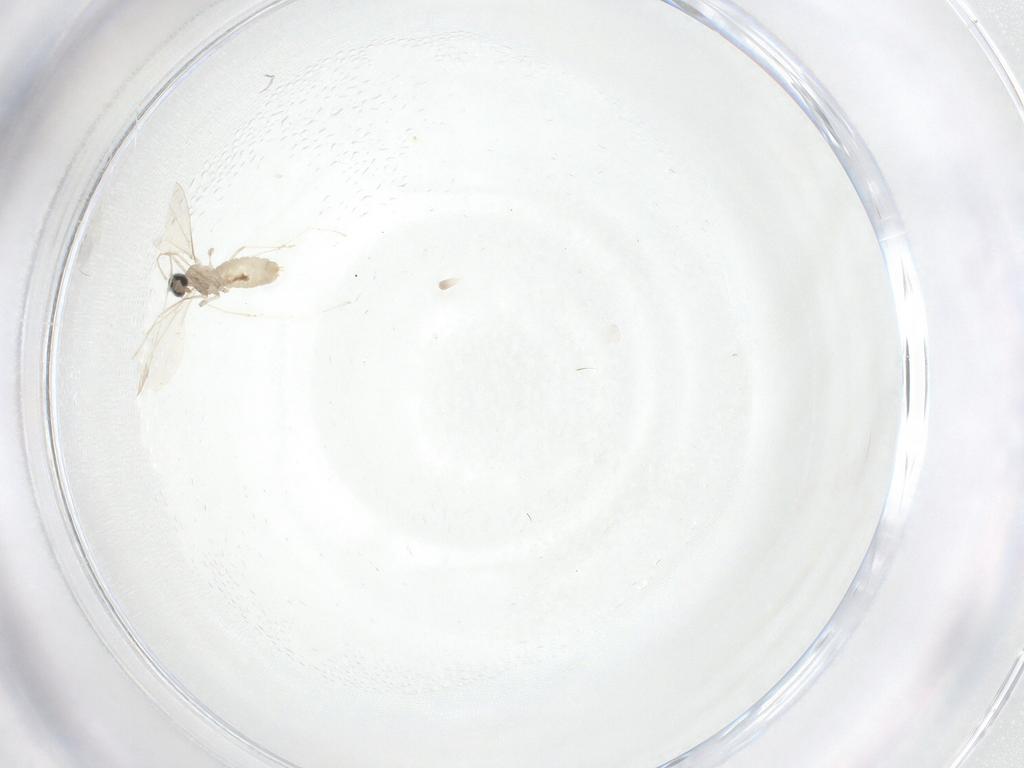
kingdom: Animalia
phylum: Arthropoda
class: Insecta
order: Diptera
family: Cecidomyiidae
